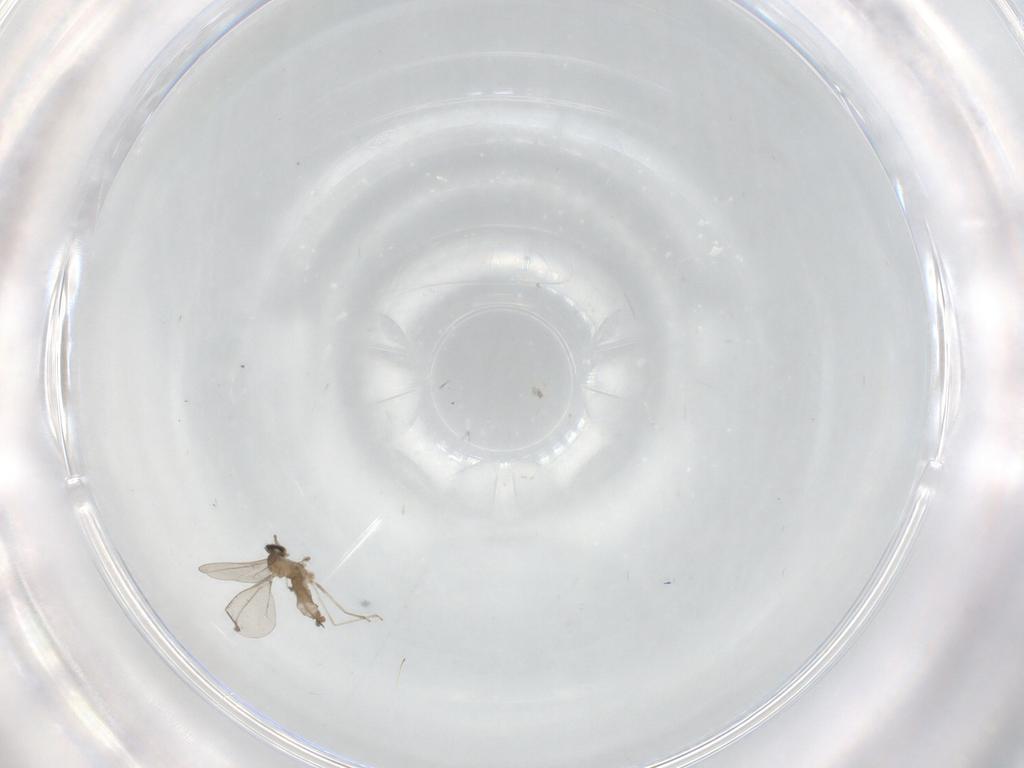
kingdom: Animalia
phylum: Arthropoda
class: Insecta
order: Diptera
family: Cecidomyiidae
